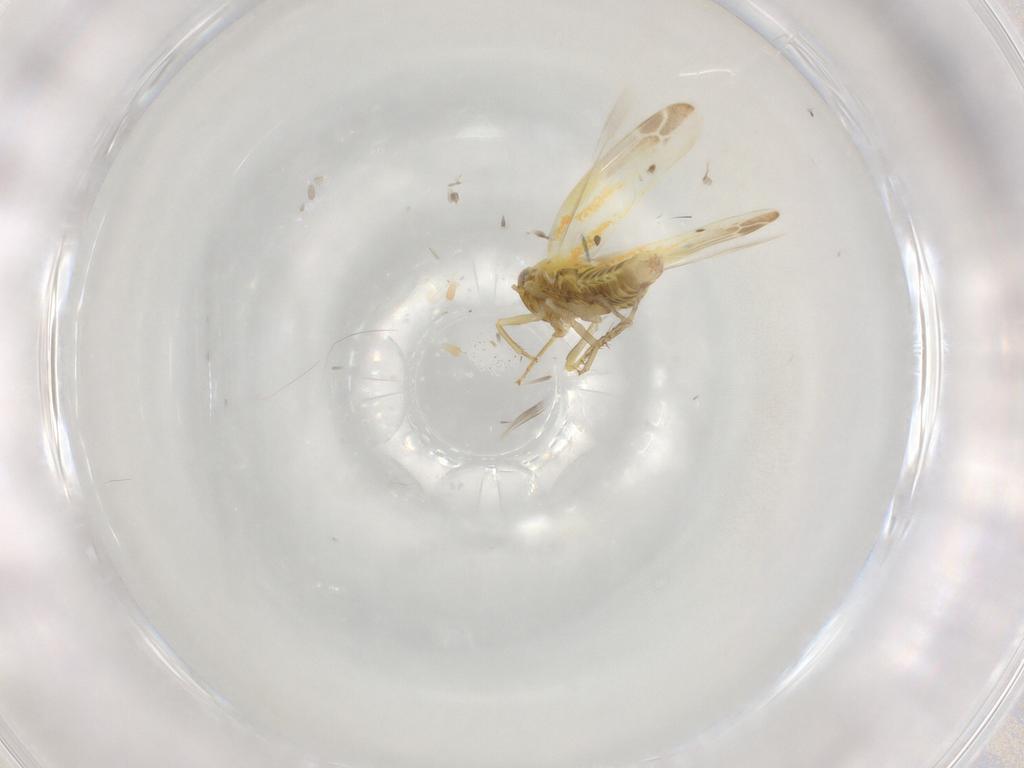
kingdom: Animalia
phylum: Arthropoda
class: Insecta
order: Hemiptera
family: Cicadellidae
